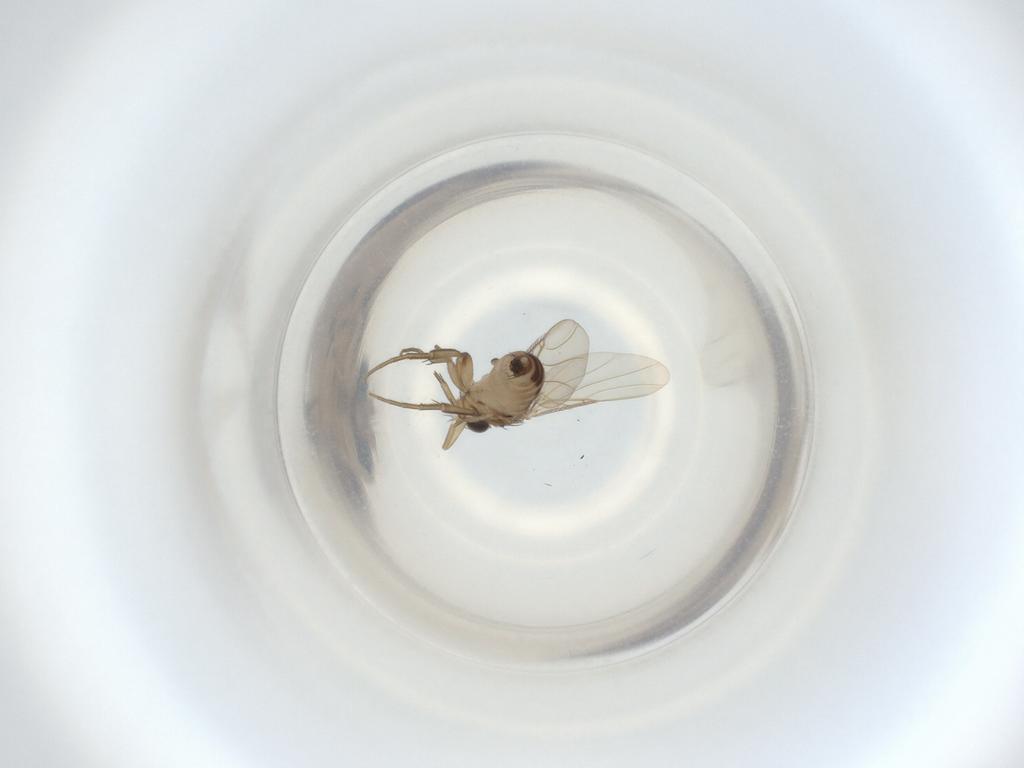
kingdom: Animalia
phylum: Arthropoda
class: Insecta
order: Diptera
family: Phoridae
